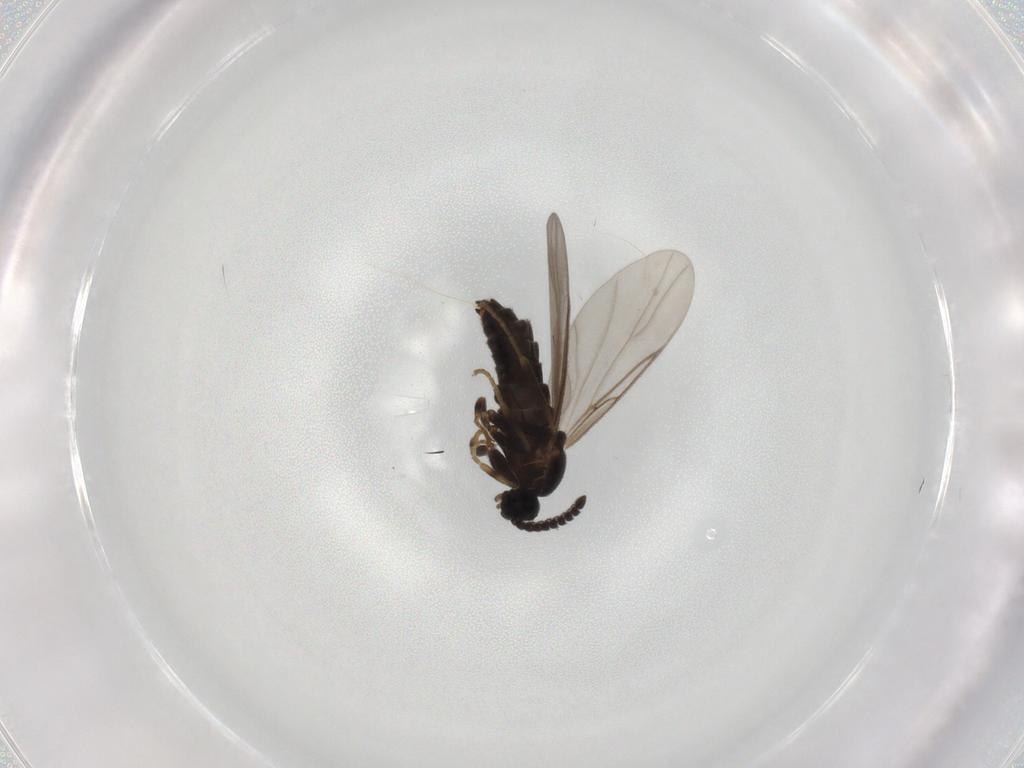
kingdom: Animalia
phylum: Arthropoda
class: Insecta
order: Diptera
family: Scatopsidae
